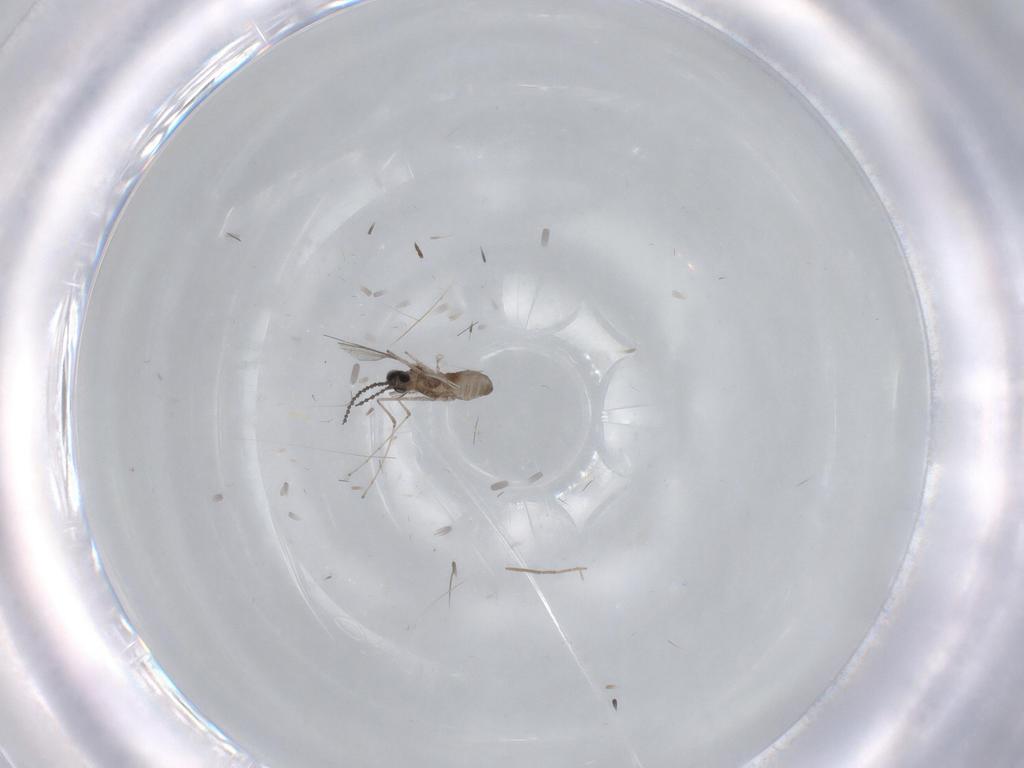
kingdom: Animalia
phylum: Arthropoda
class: Insecta
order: Diptera
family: Cecidomyiidae
